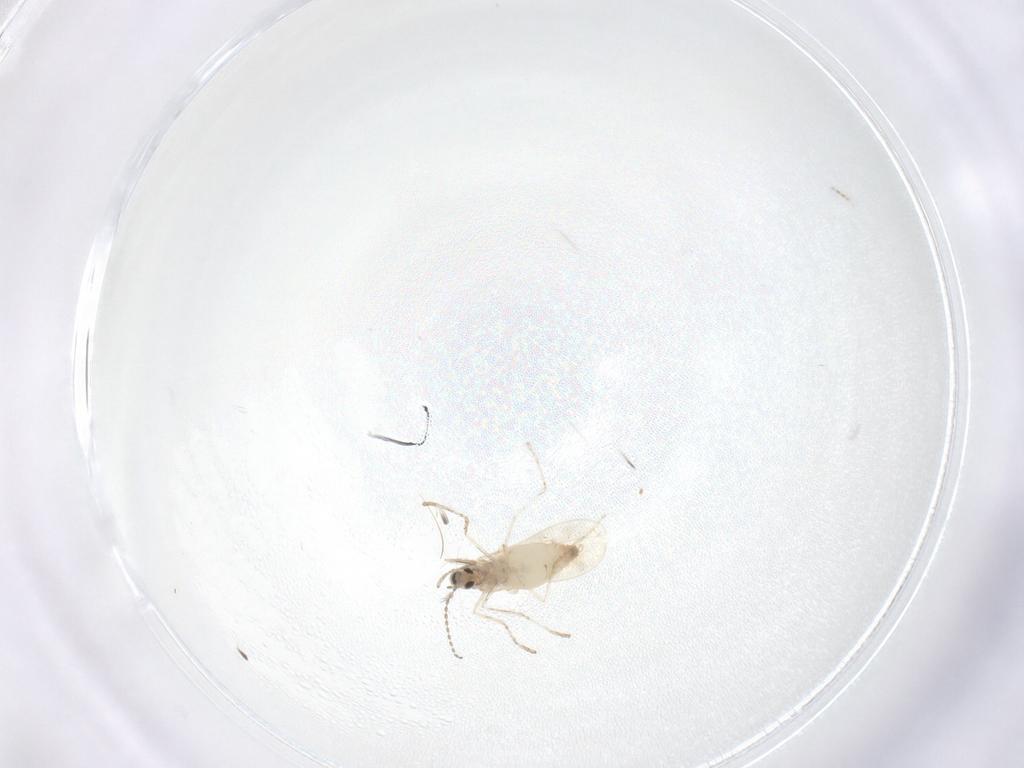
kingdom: Animalia
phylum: Arthropoda
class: Insecta
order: Diptera
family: Cecidomyiidae
